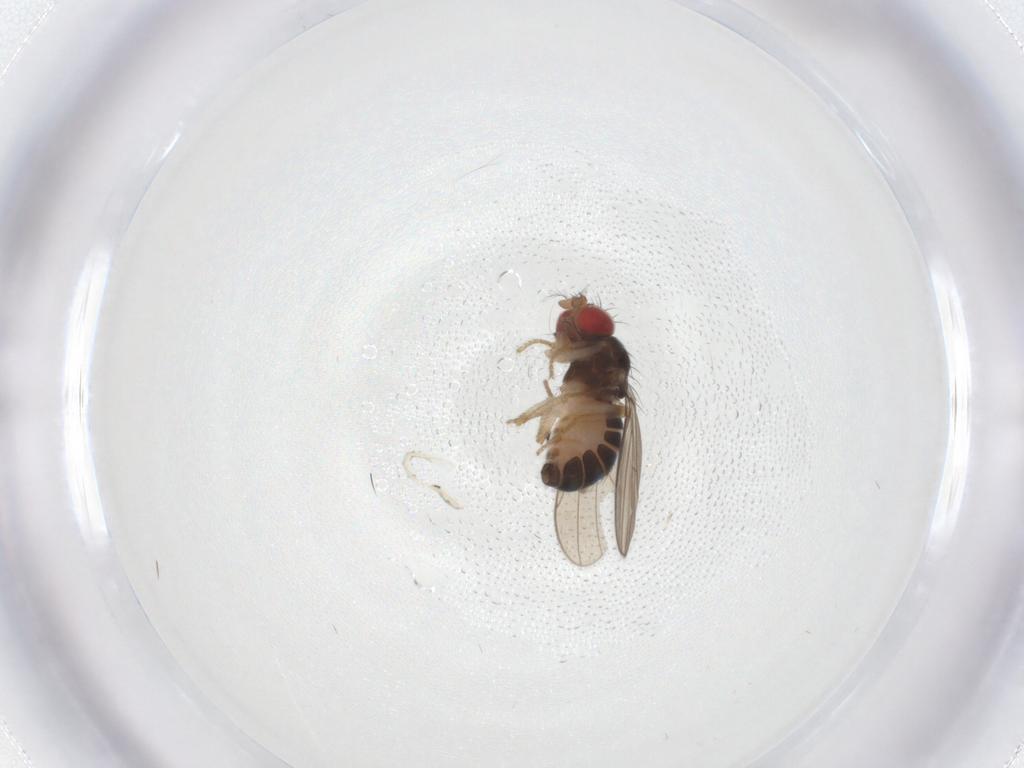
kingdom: Animalia
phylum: Arthropoda
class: Insecta
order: Diptera
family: Drosophilidae
